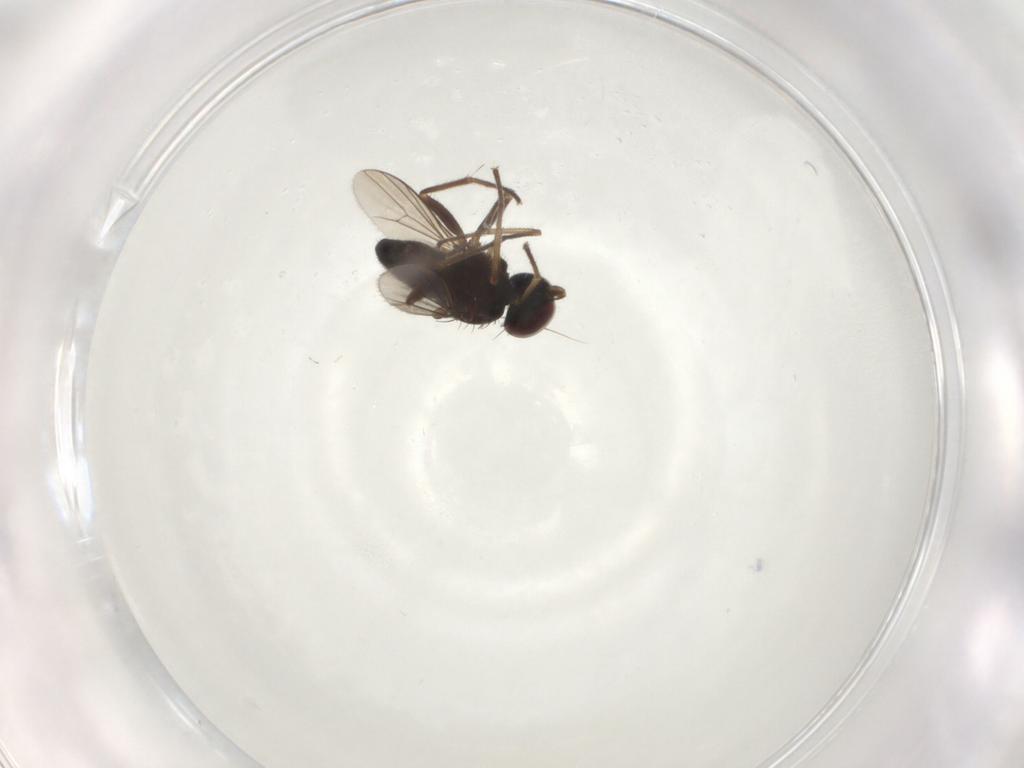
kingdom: Animalia
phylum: Arthropoda
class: Insecta
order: Diptera
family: Dolichopodidae
